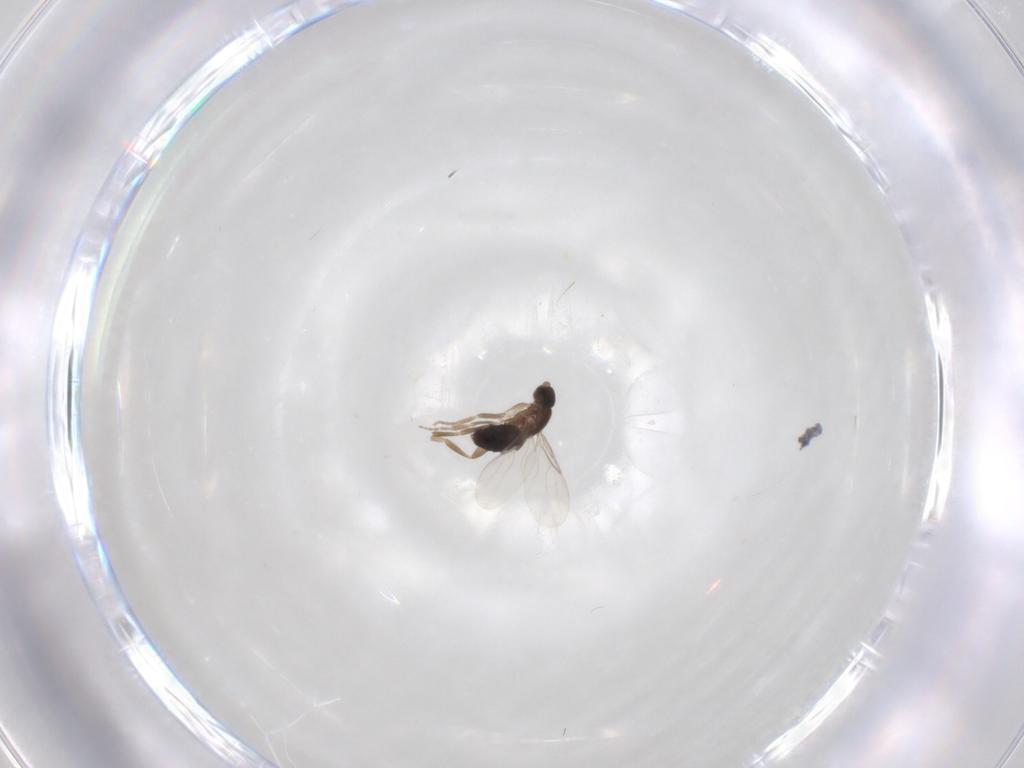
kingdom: Animalia
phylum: Arthropoda
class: Insecta
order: Diptera
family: Phoridae
